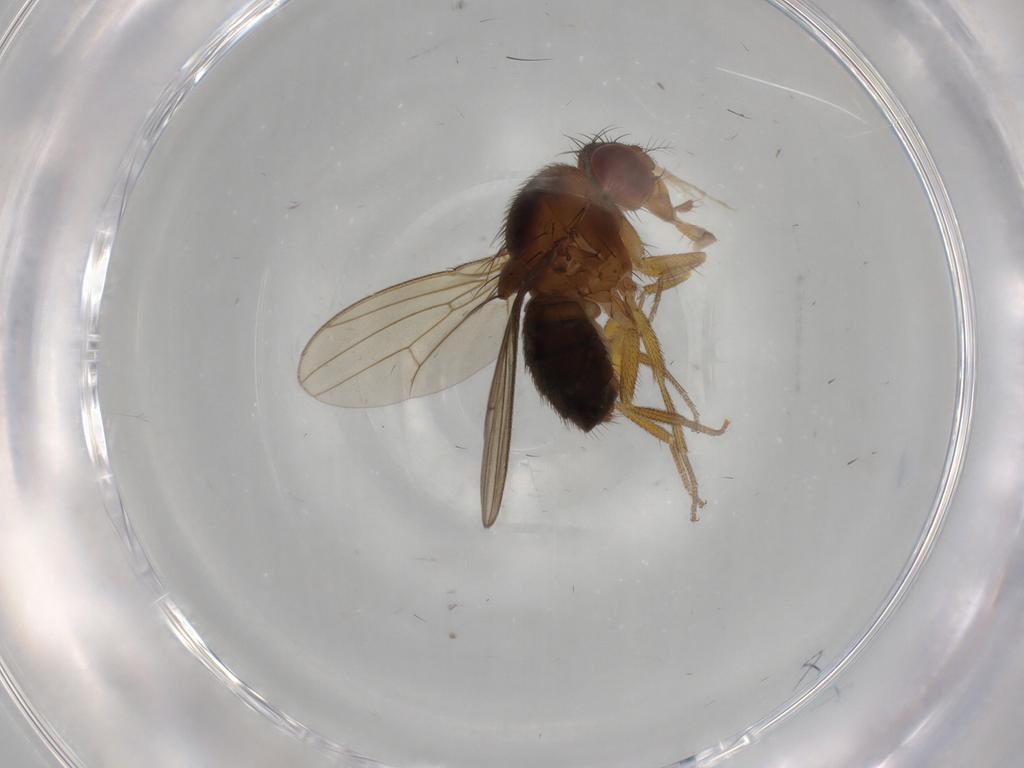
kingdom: Animalia
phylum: Arthropoda
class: Insecta
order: Diptera
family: Drosophilidae
